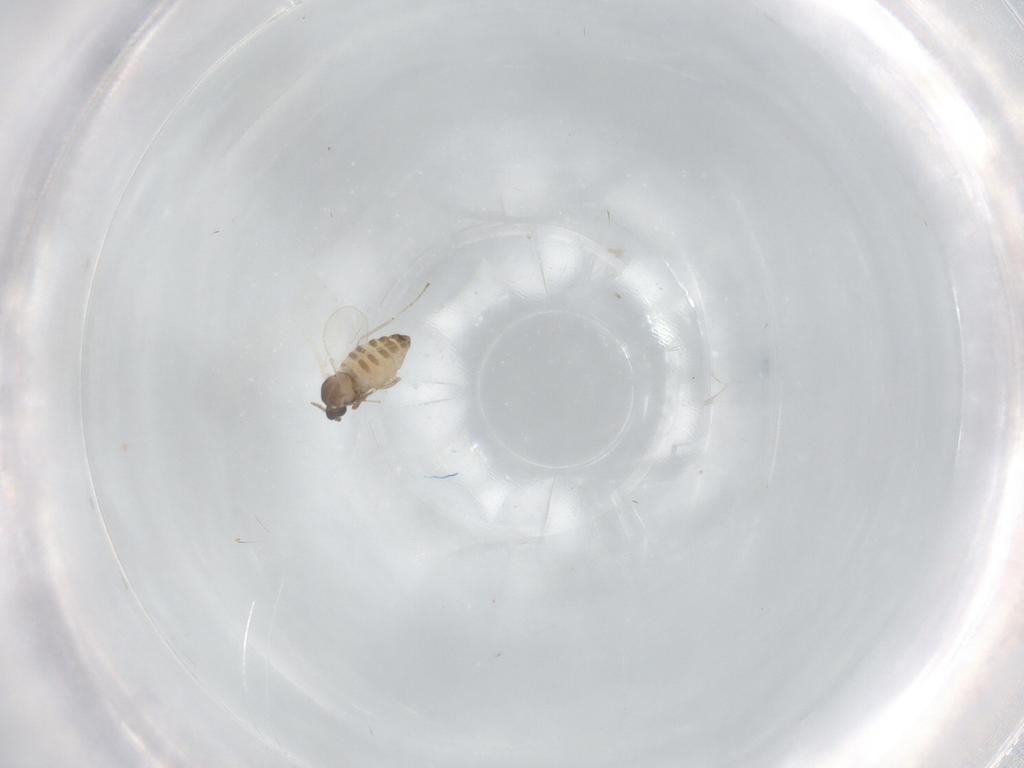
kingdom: Animalia
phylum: Arthropoda
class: Insecta
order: Diptera
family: Cecidomyiidae
